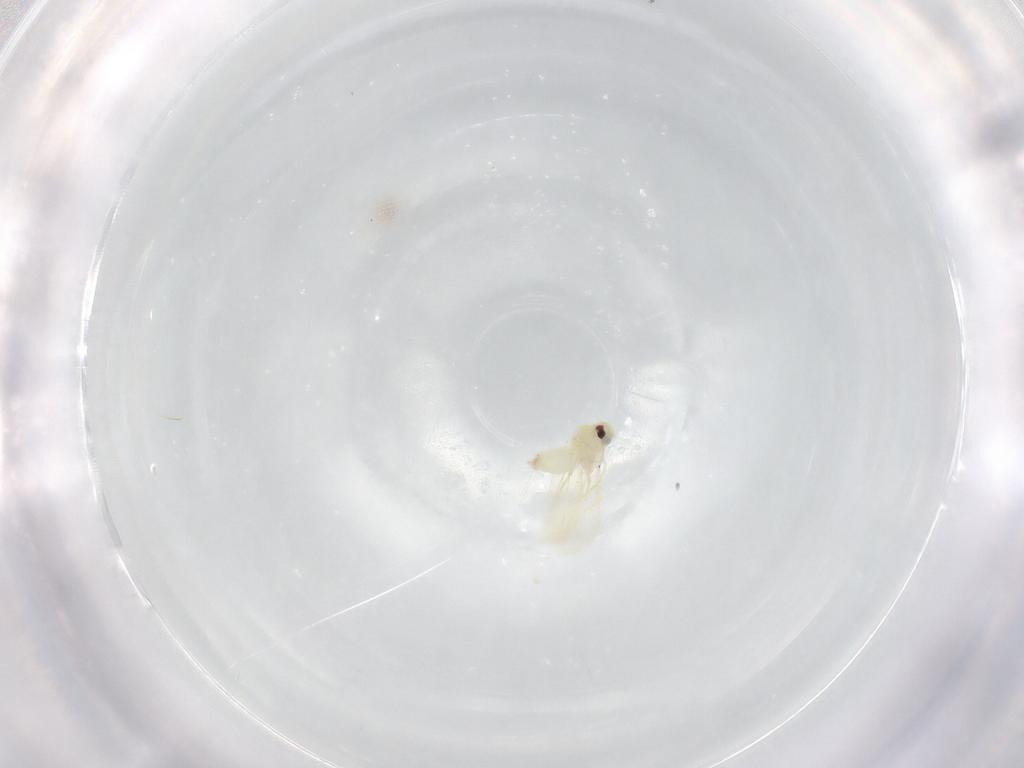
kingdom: Animalia
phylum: Arthropoda
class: Insecta
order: Hemiptera
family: Aleyrodidae
